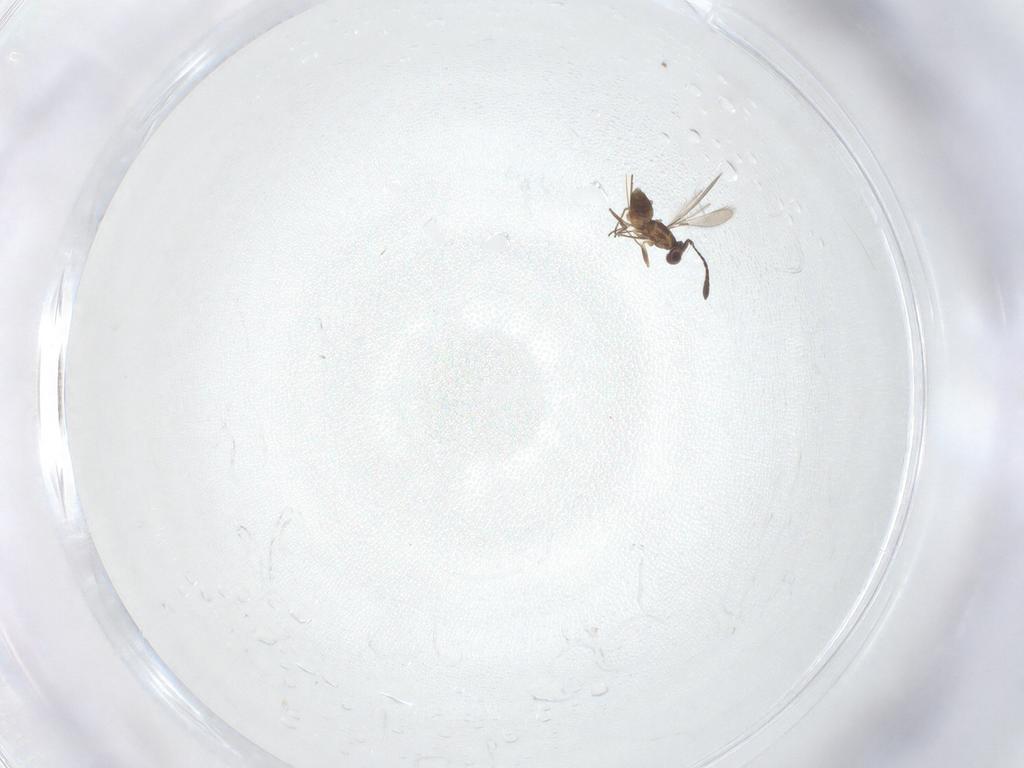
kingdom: Animalia
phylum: Arthropoda
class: Insecta
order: Hymenoptera
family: Mymaridae
